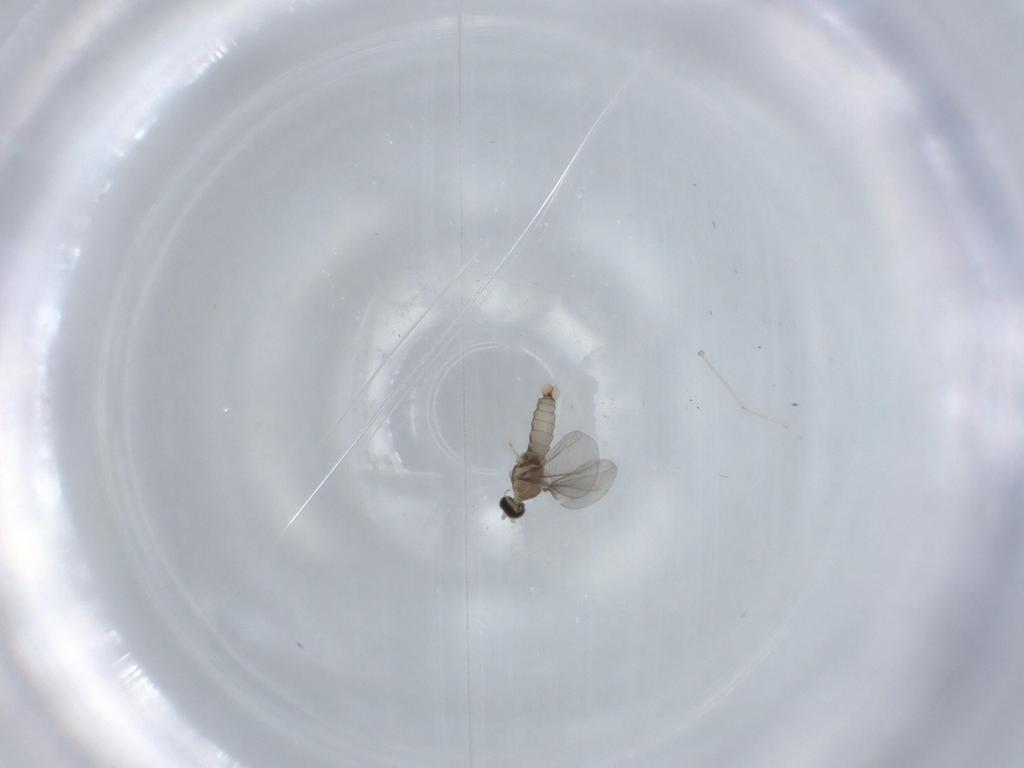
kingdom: Animalia
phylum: Arthropoda
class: Insecta
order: Diptera
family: Cecidomyiidae
